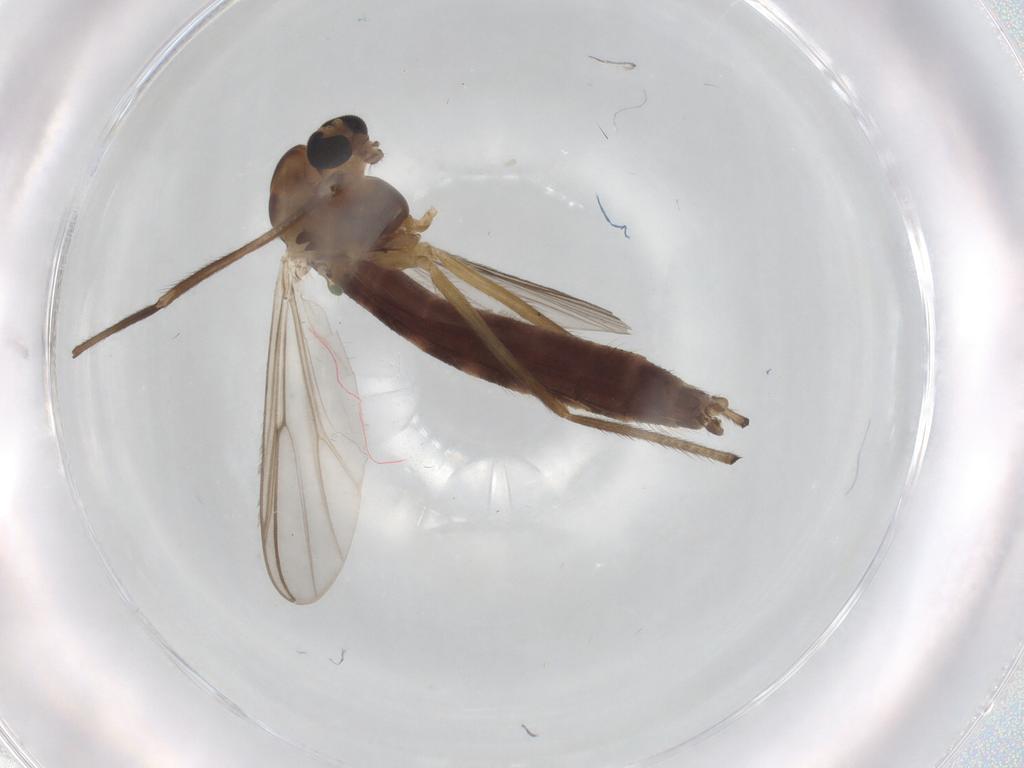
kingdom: Animalia
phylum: Arthropoda
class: Insecta
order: Diptera
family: Chironomidae
